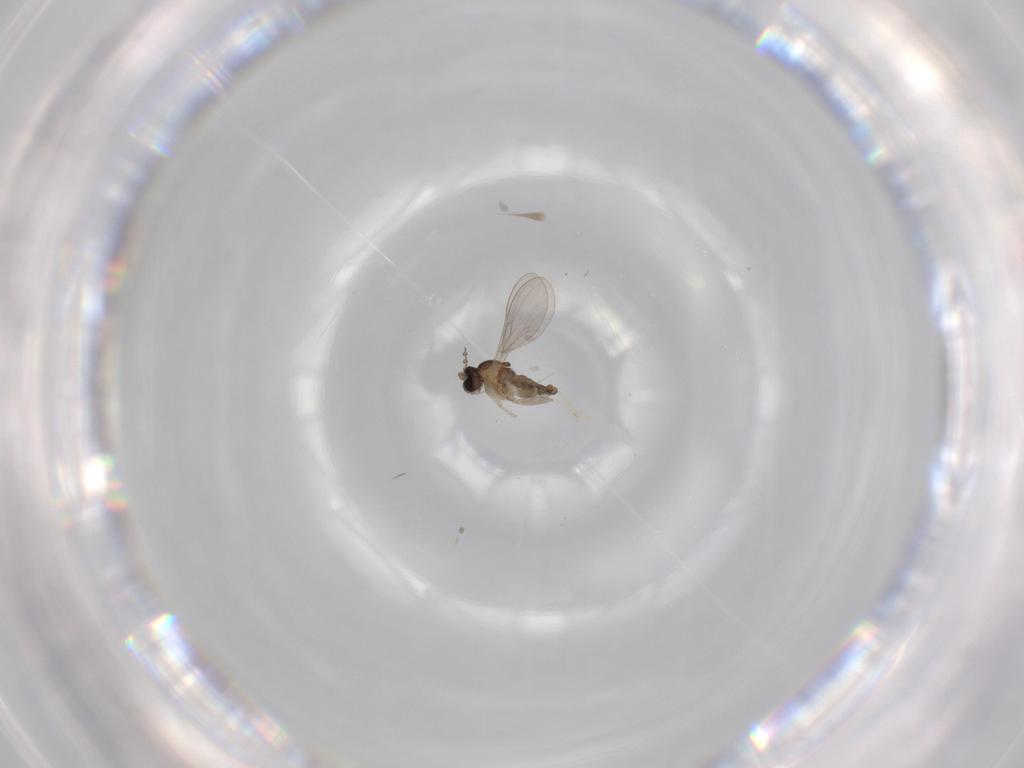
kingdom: Animalia
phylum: Arthropoda
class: Insecta
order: Diptera
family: Cecidomyiidae
